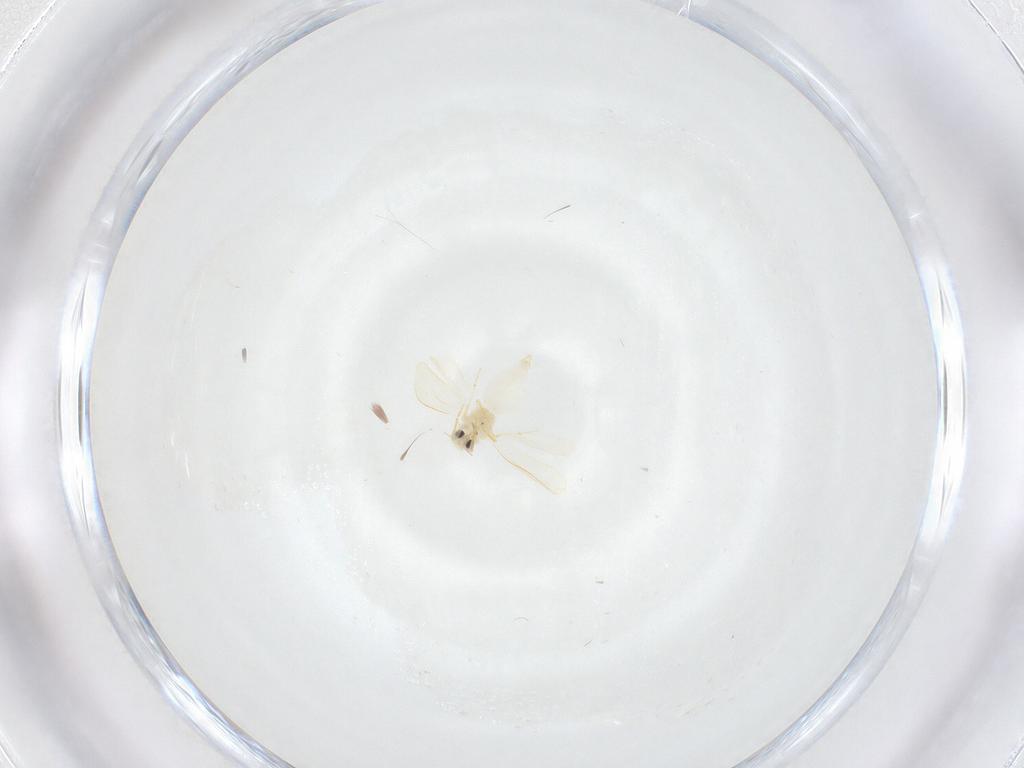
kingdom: Animalia
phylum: Arthropoda
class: Insecta
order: Hemiptera
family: Aleyrodidae
